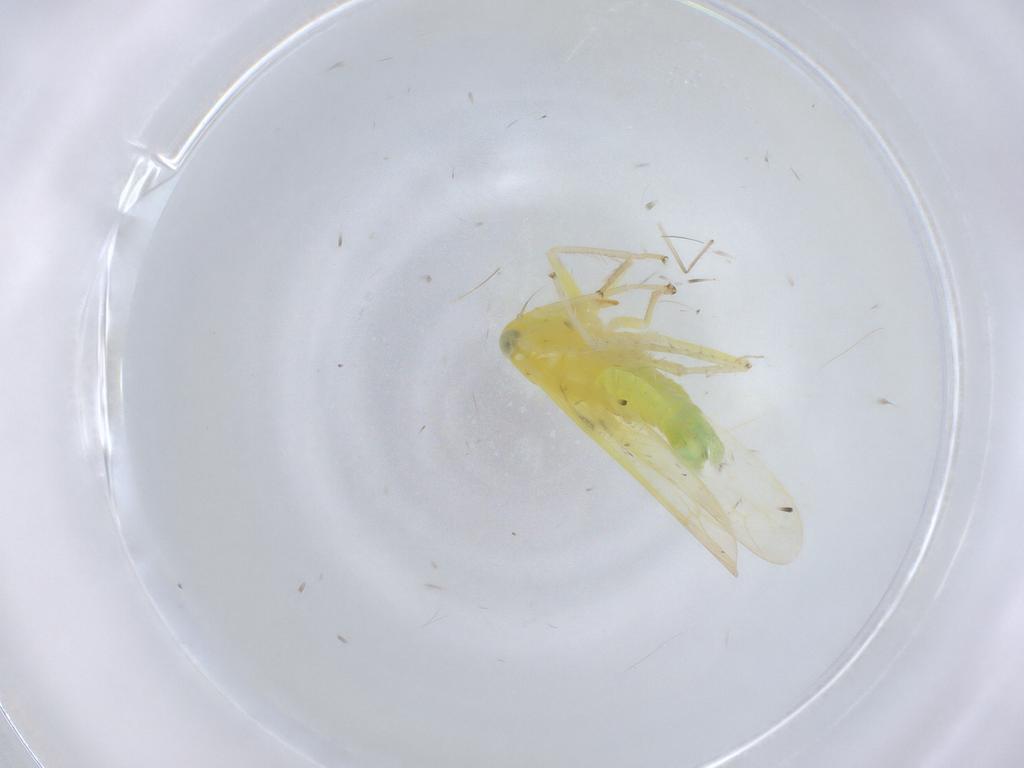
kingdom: Animalia
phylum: Arthropoda
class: Insecta
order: Hemiptera
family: Cicadellidae
